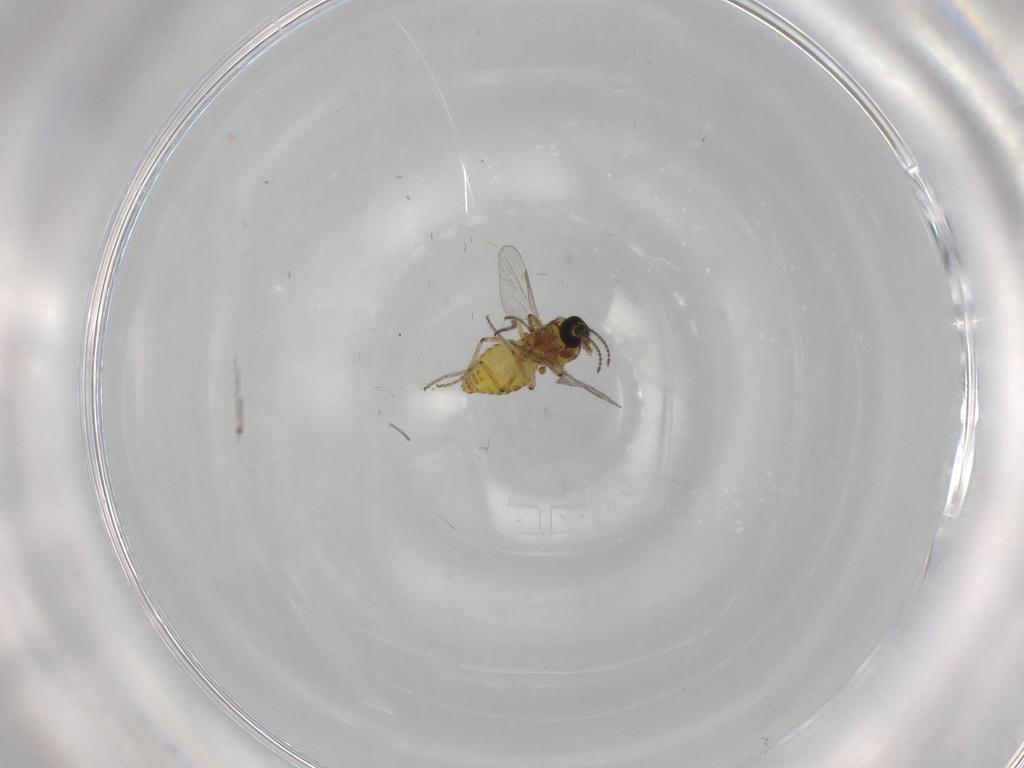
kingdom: Animalia
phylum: Arthropoda
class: Insecta
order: Diptera
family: Ceratopogonidae
